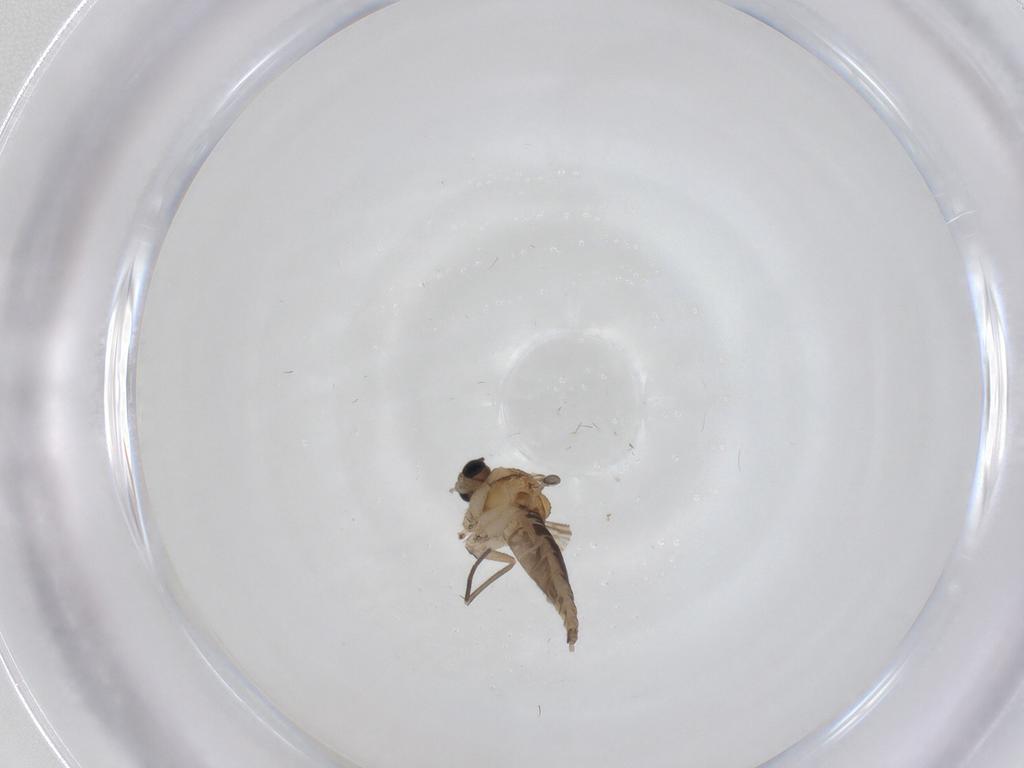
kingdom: Animalia
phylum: Arthropoda
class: Insecta
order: Diptera
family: Sciaridae
